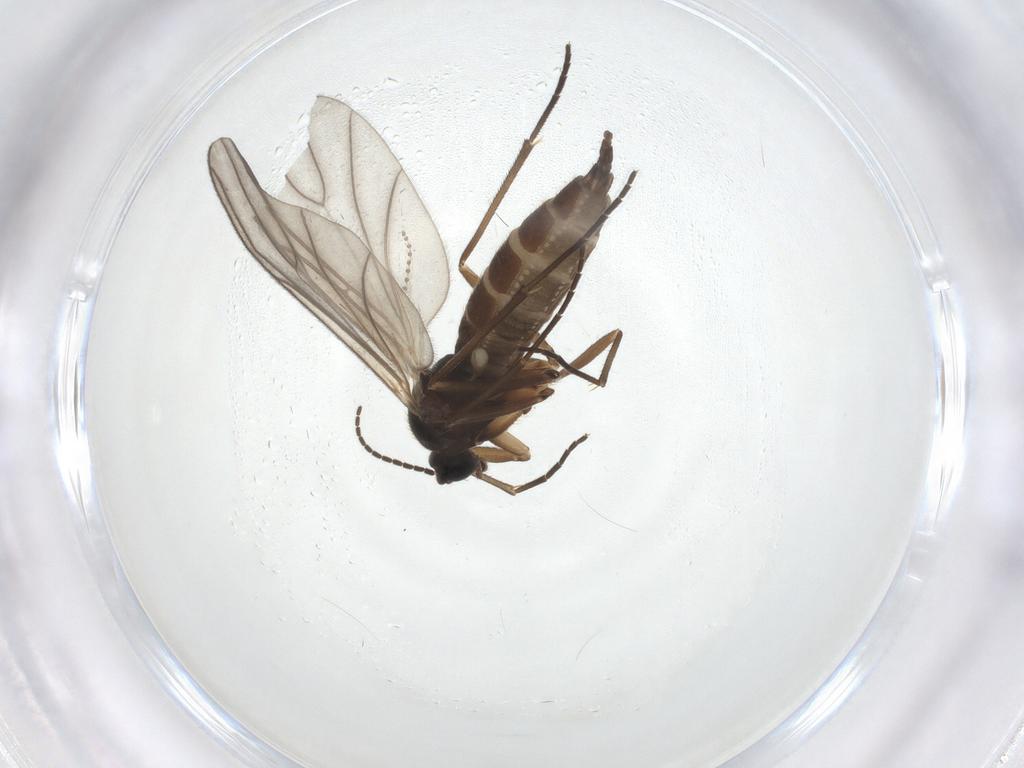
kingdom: Animalia
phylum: Arthropoda
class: Insecta
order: Diptera
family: Sciaridae
